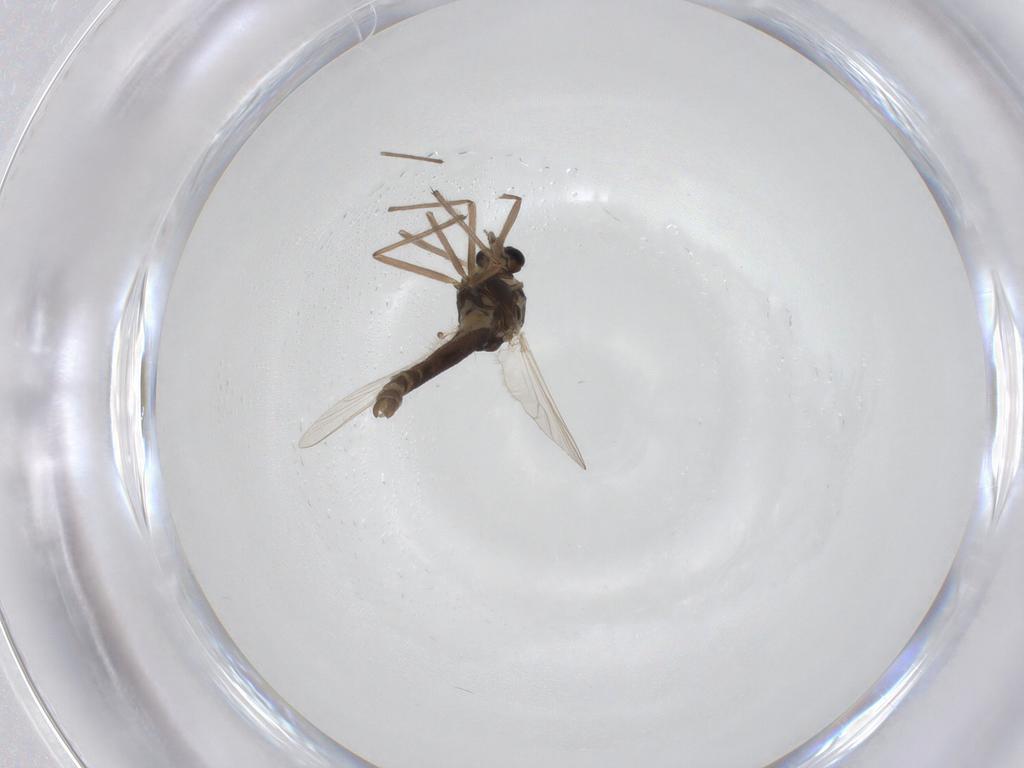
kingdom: Animalia
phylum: Arthropoda
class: Insecta
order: Diptera
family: Chironomidae
